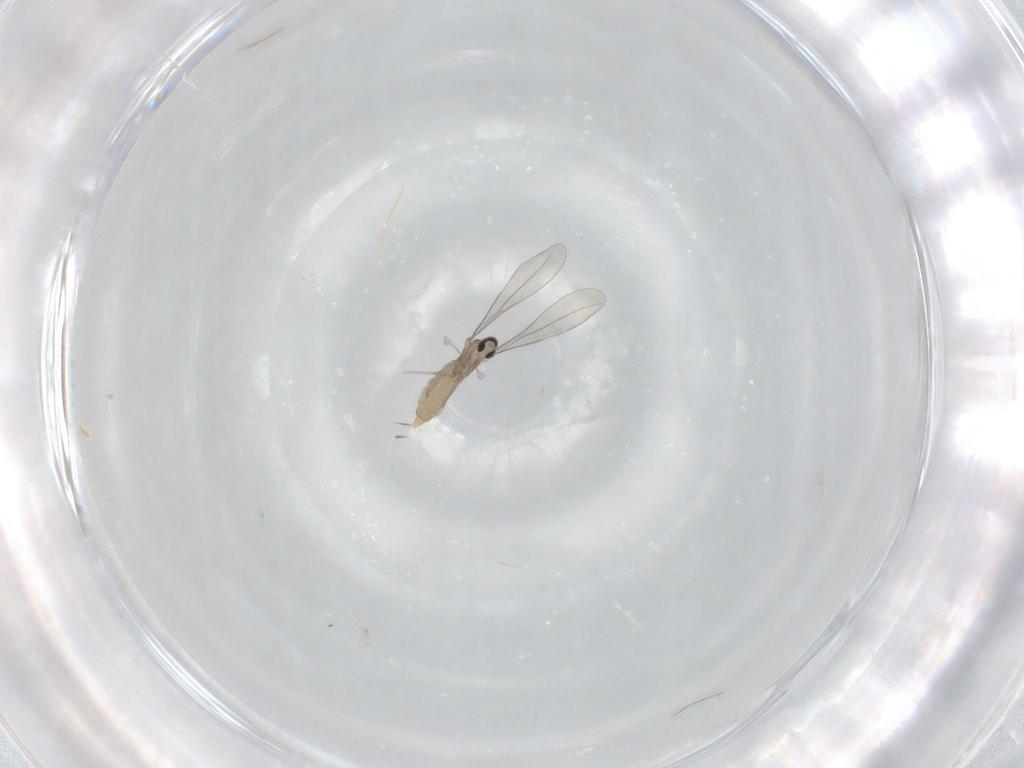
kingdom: Animalia
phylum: Arthropoda
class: Insecta
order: Diptera
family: Cecidomyiidae
